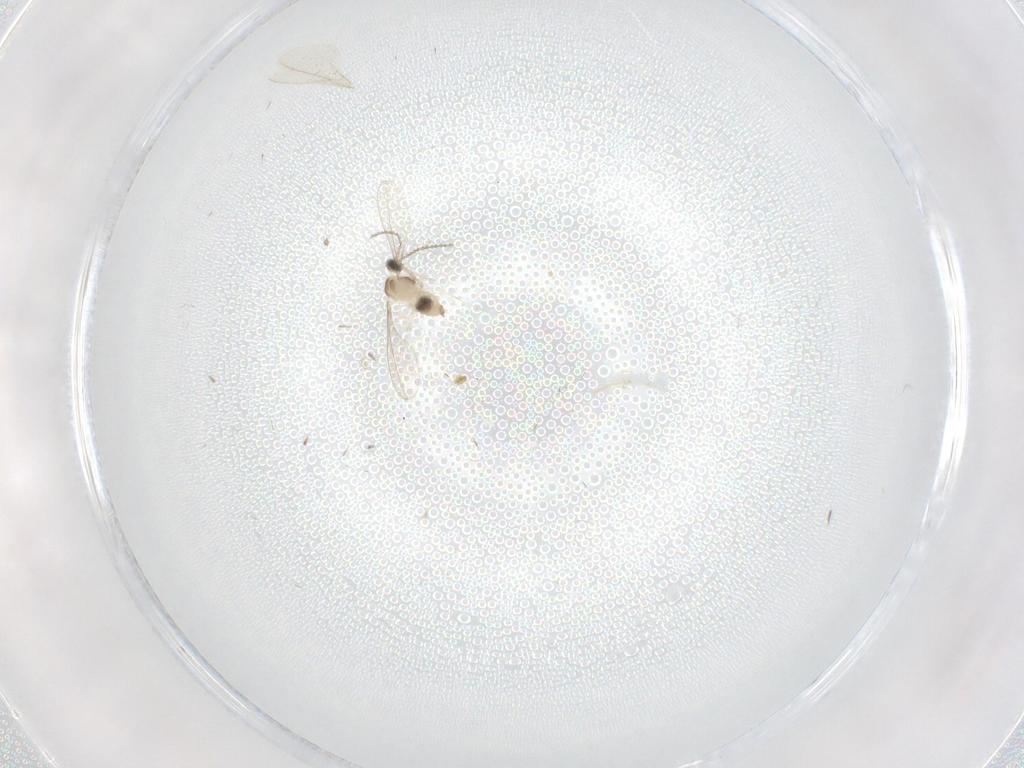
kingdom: Animalia
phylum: Arthropoda
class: Insecta
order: Diptera
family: Cecidomyiidae
